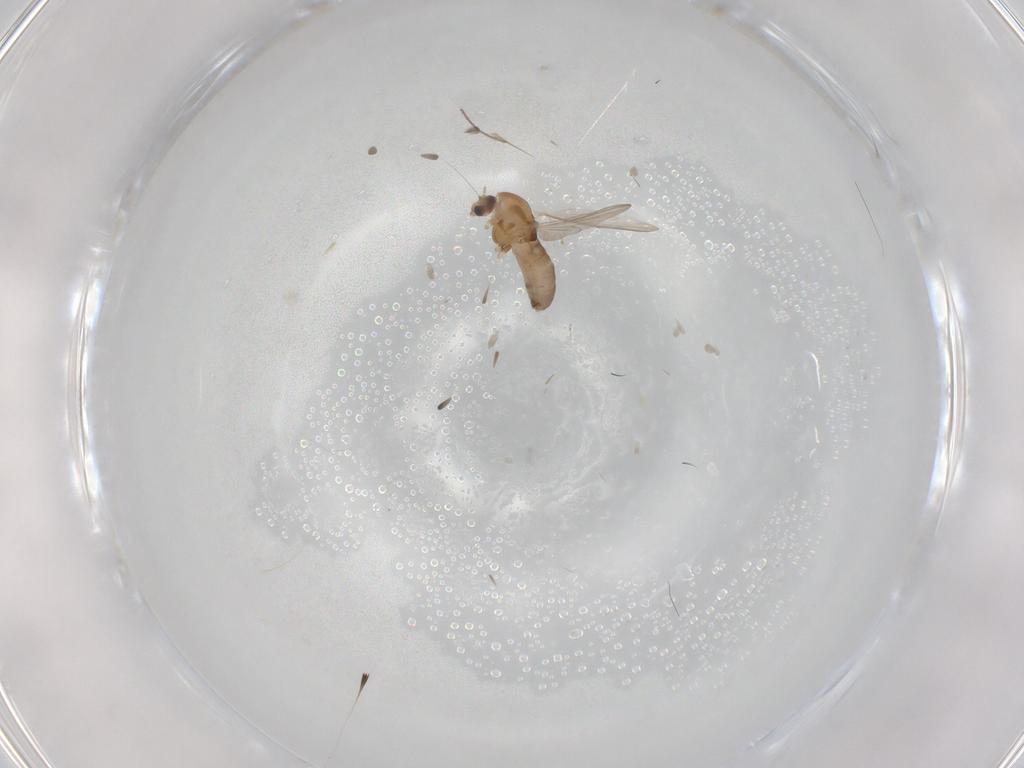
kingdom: Animalia
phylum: Arthropoda
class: Insecta
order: Diptera
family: Chironomidae
